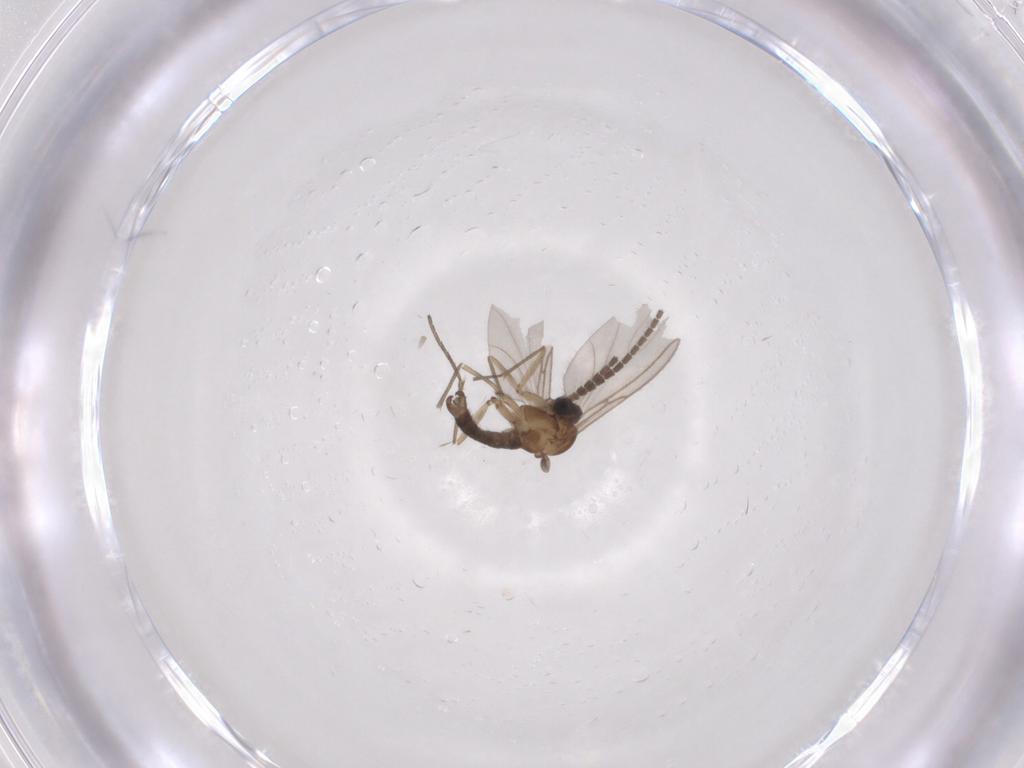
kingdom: Animalia
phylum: Arthropoda
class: Insecta
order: Diptera
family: Sciaridae
